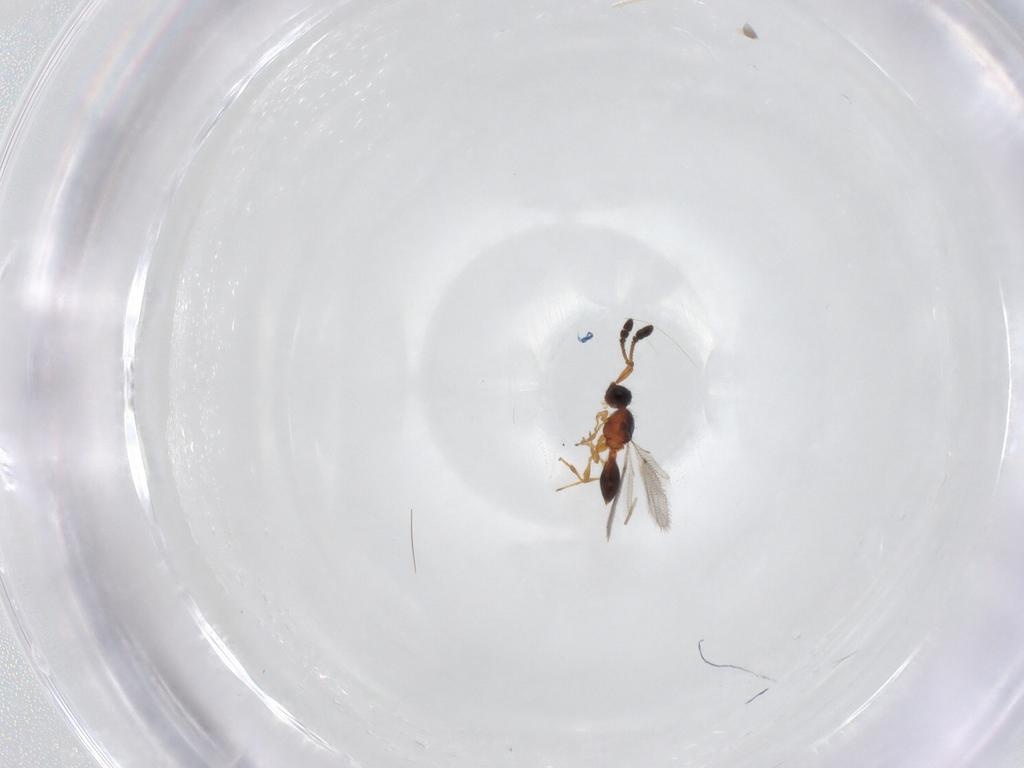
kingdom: Animalia
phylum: Arthropoda
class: Insecta
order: Hymenoptera
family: Diapriidae
